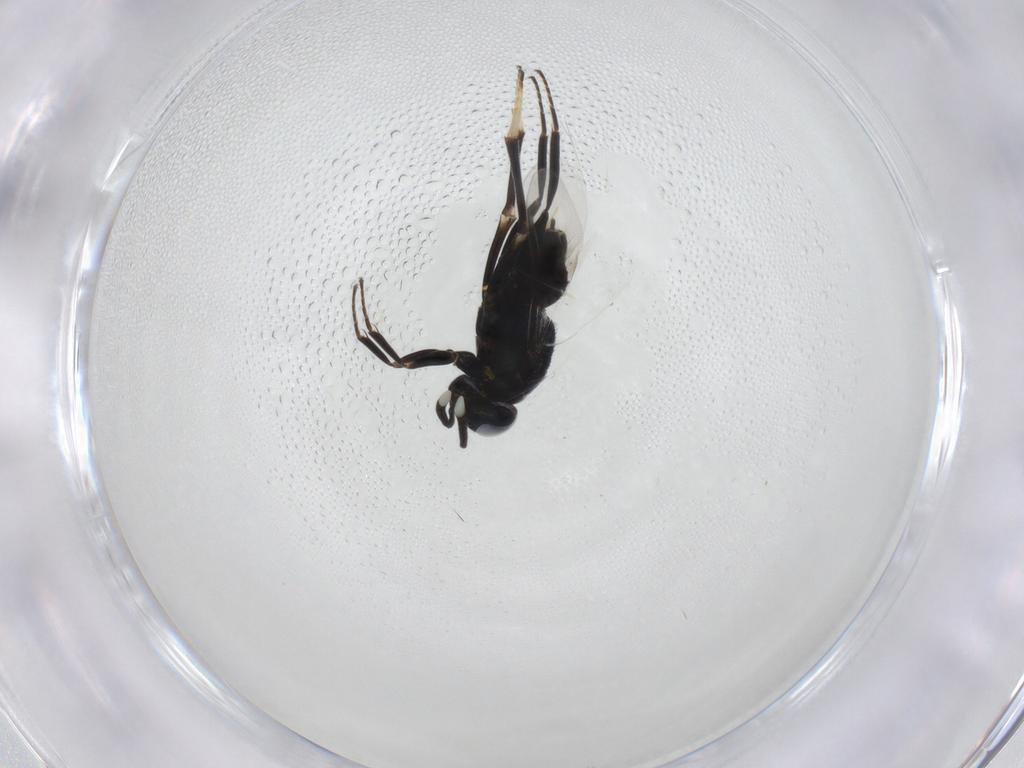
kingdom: Animalia
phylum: Arthropoda
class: Insecta
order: Hymenoptera
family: Encyrtidae
